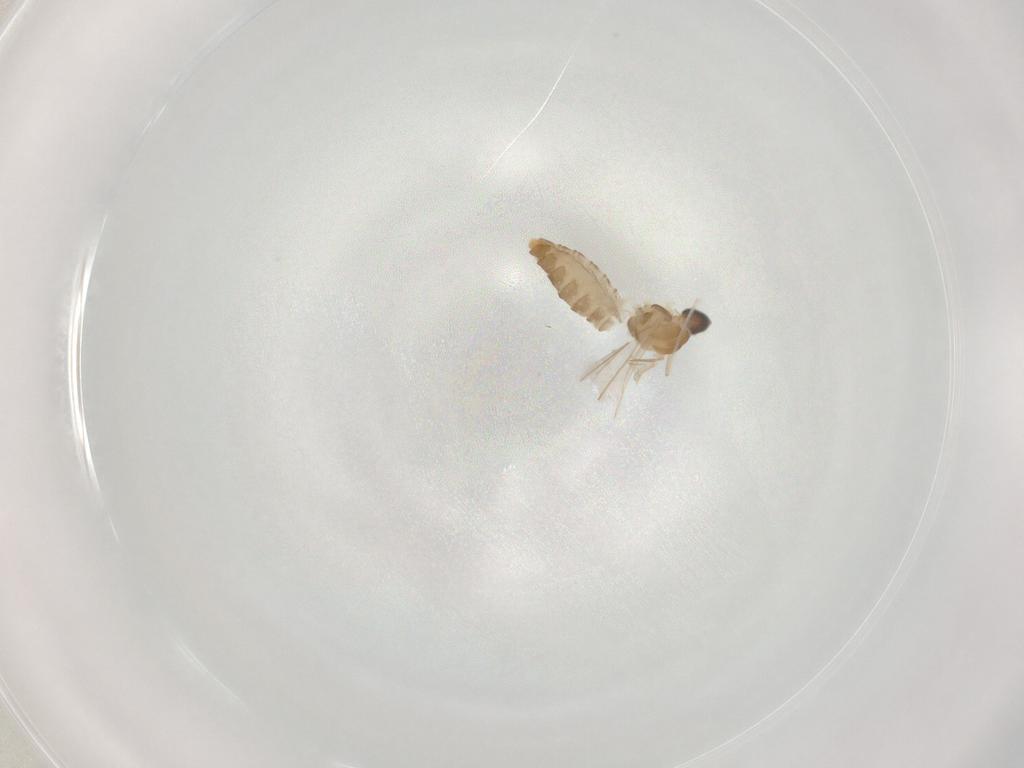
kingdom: Animalia
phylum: Arthropoda
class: Insecta
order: Diptera
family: Cecidomyiidae
